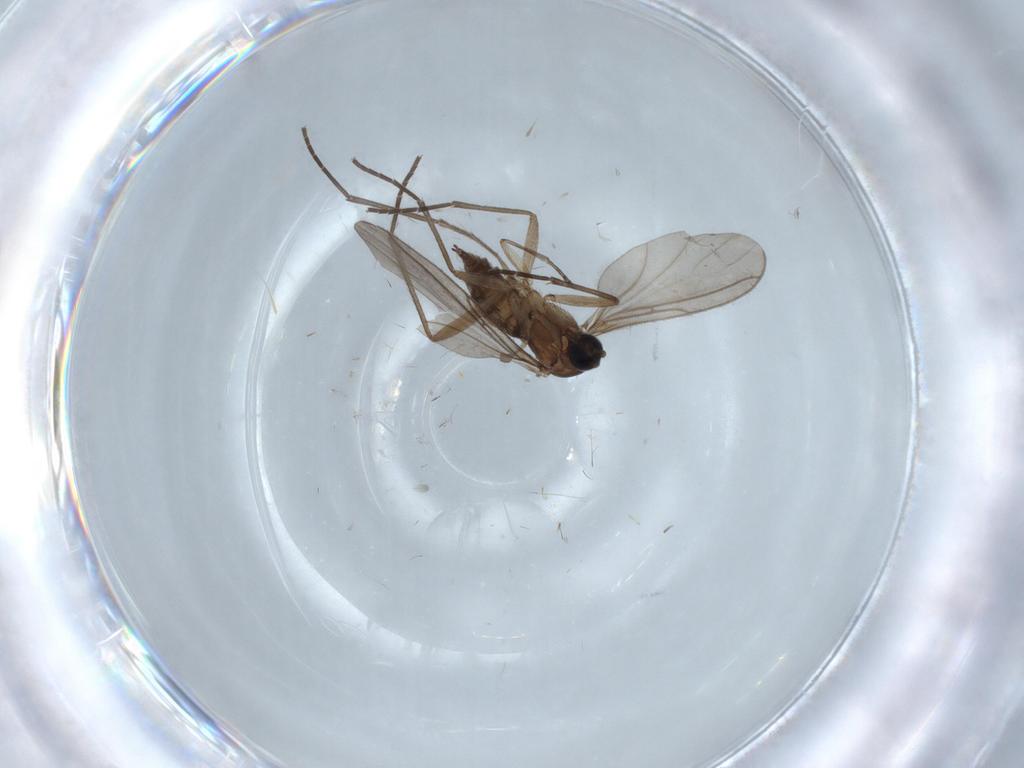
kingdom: Animalia
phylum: Arthropoda
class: Insecta
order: Diptera
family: Sciaridae
